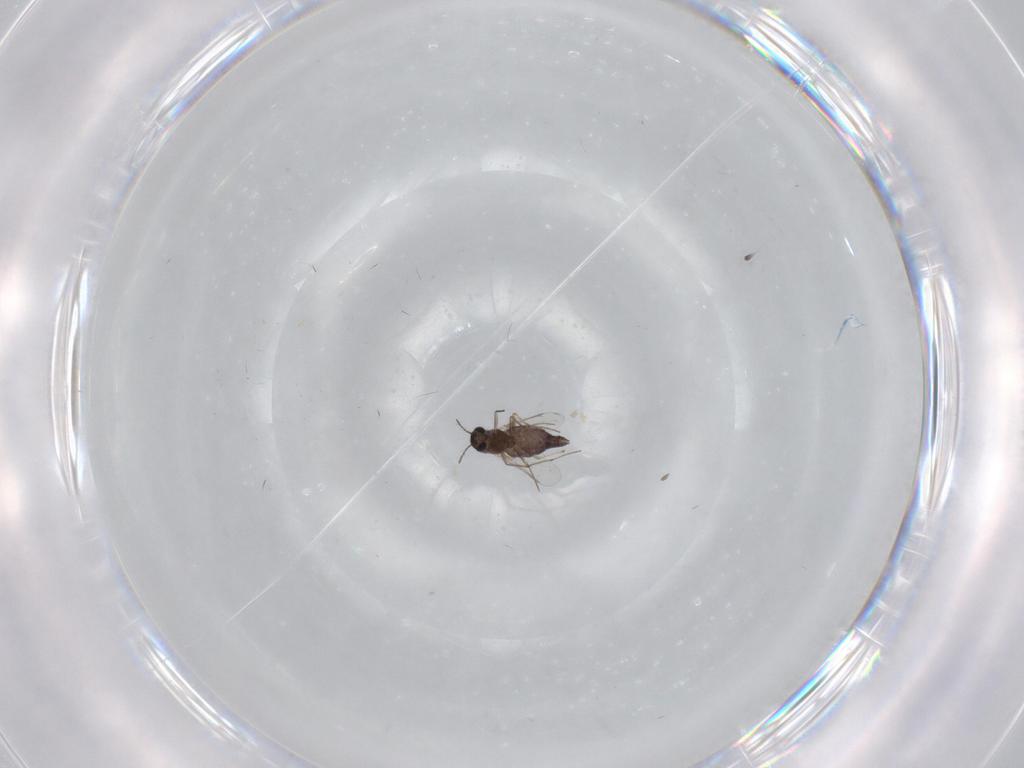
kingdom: Animalia
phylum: Arthropoda
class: Insecta
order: Diptera
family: Chironomidae
